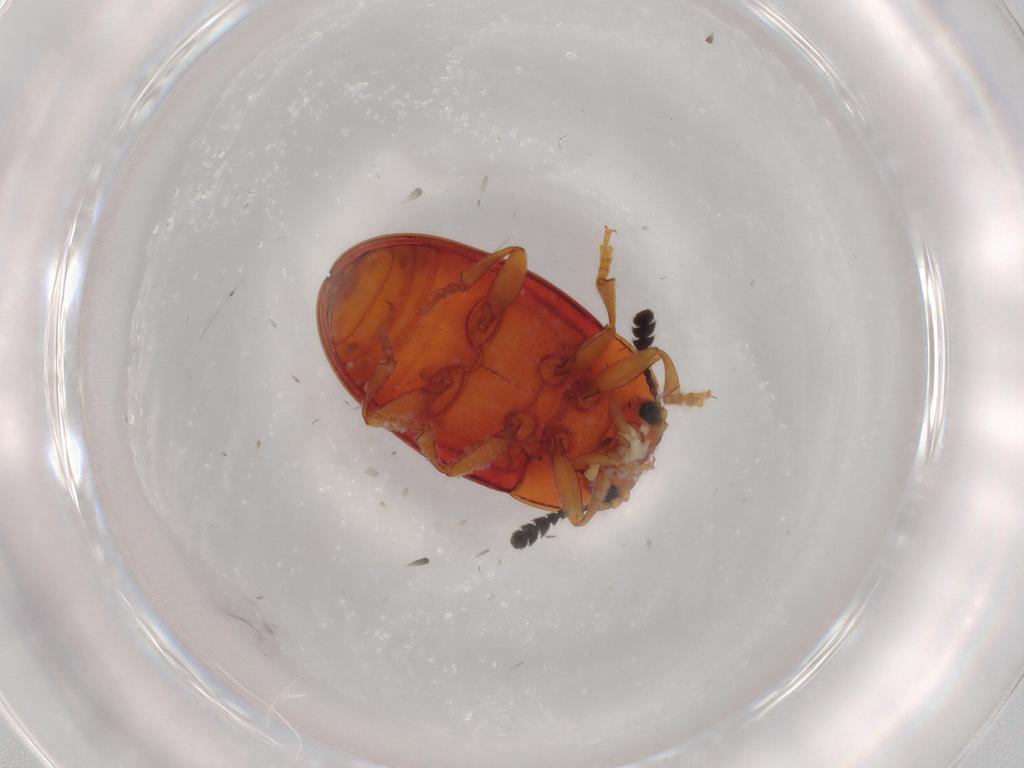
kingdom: Animalia
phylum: Arthropoda
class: Insecta
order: Coleoptera
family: Erotylidae
